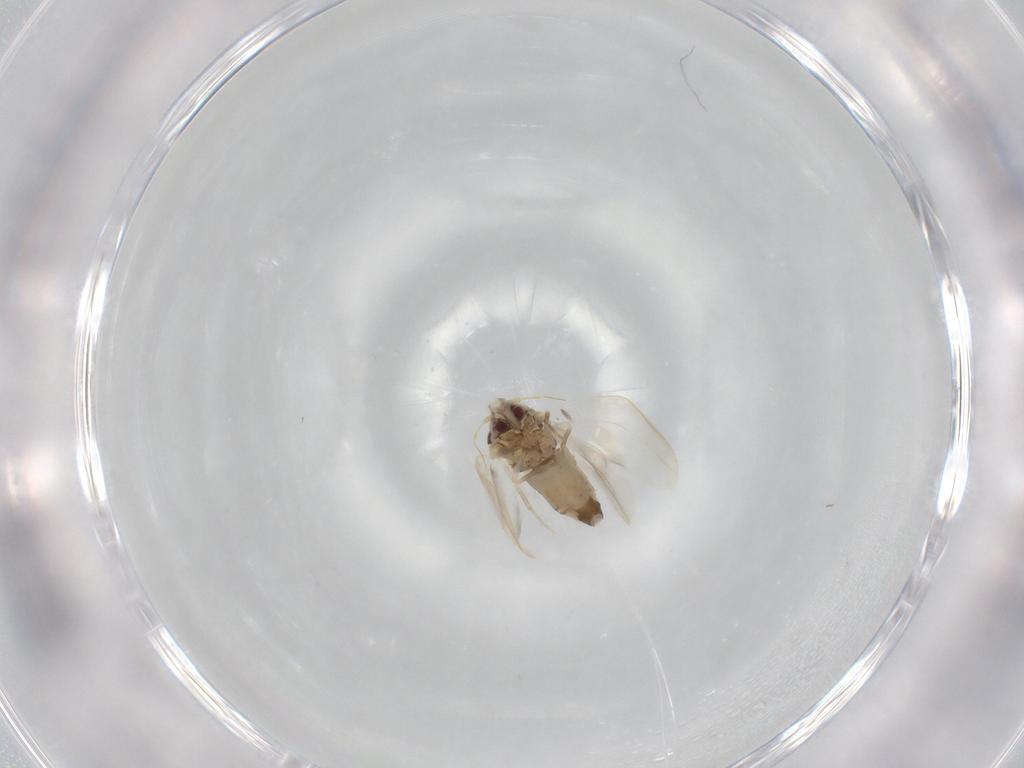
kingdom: Animalia
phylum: Arthropoda
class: Insecta
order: Hemiptera
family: Aleyrodidae
